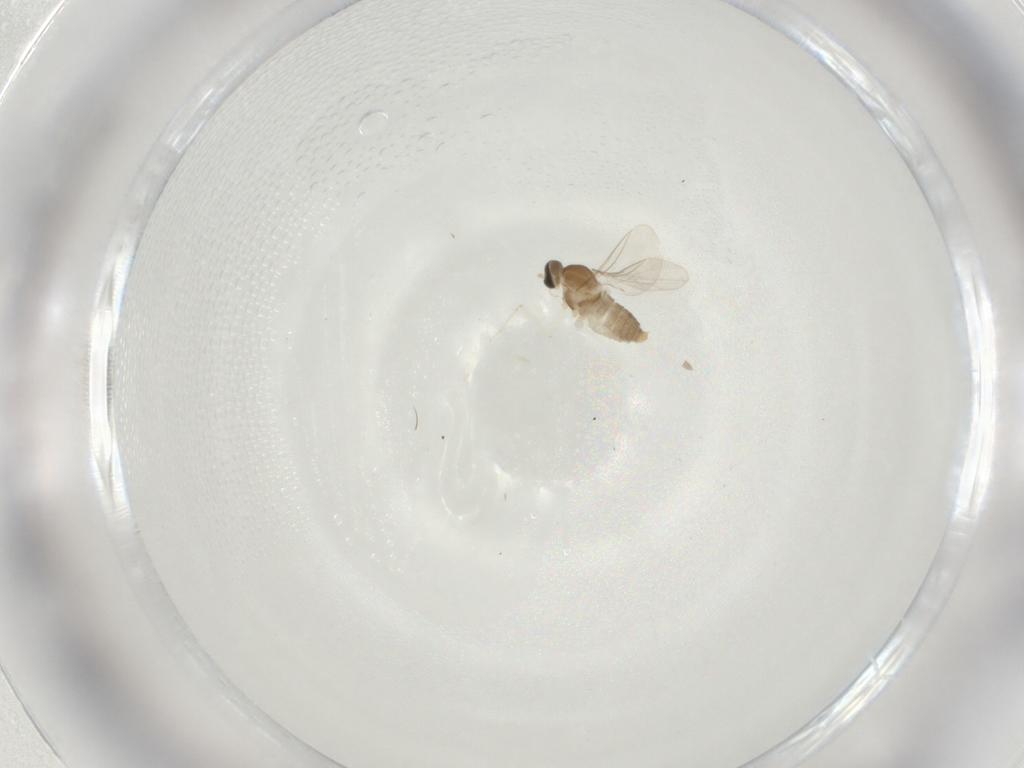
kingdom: Animalia
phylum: Arthropoda
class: Insecta
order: Diptera
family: Cecidomyiidae
